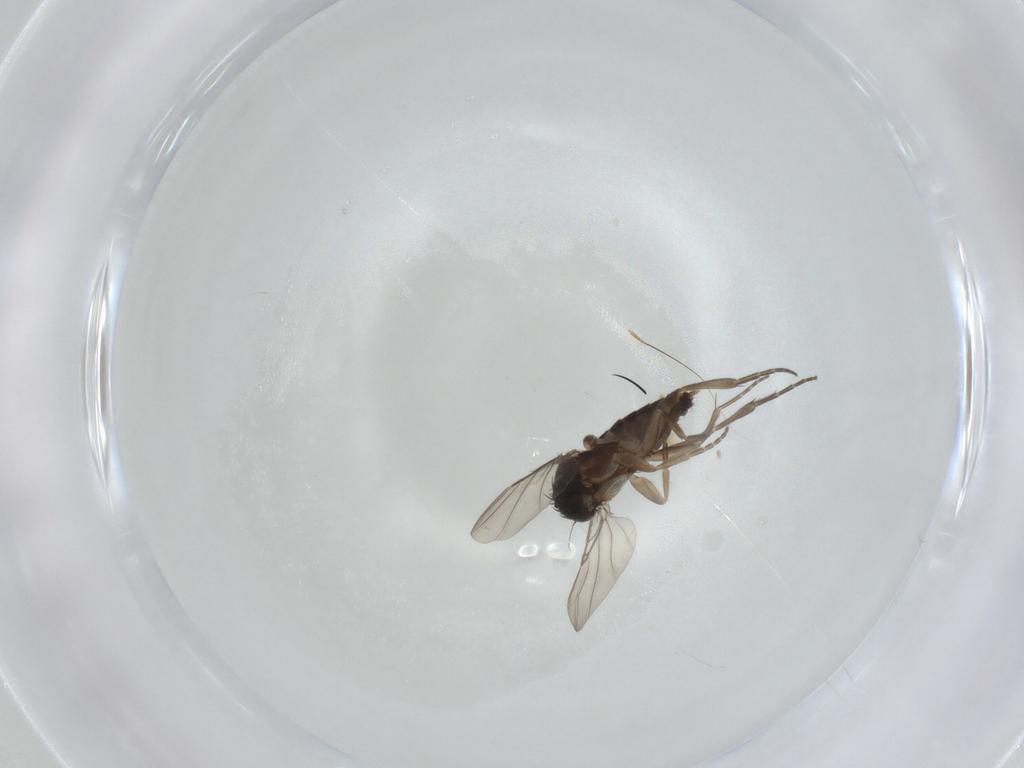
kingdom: Animalia
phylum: Arthropoda
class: Insecta
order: Diptera
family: Phoridae
